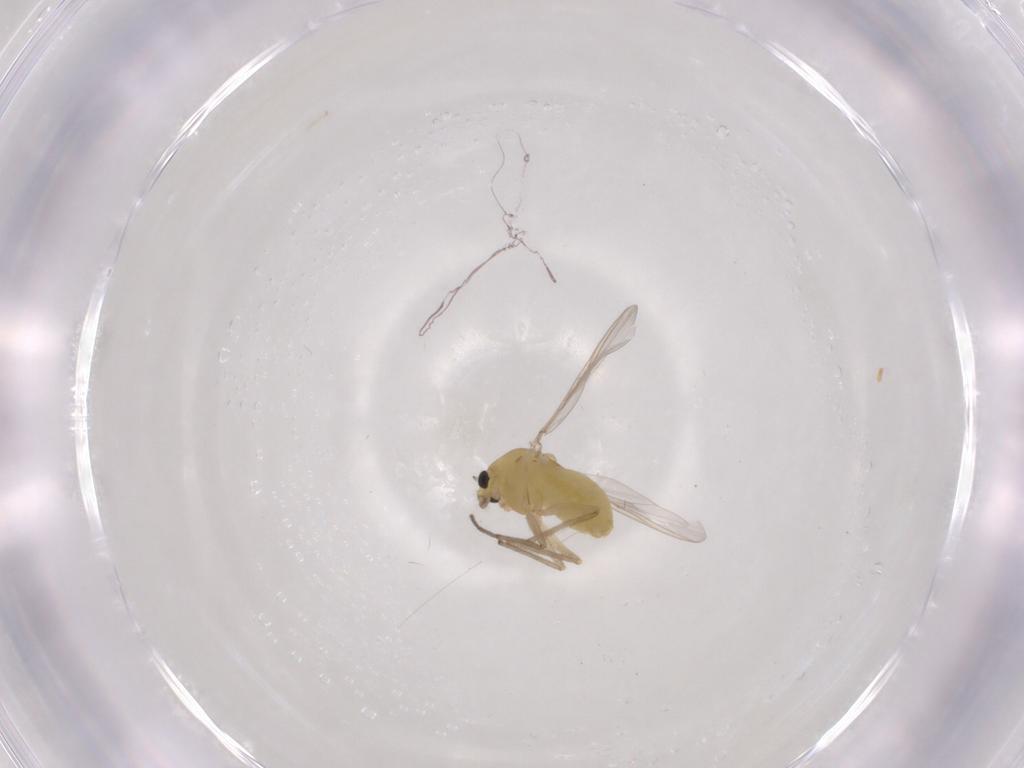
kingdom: Animalia
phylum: Arthropoda
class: Insecta
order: Diptera
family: Chironomidae
